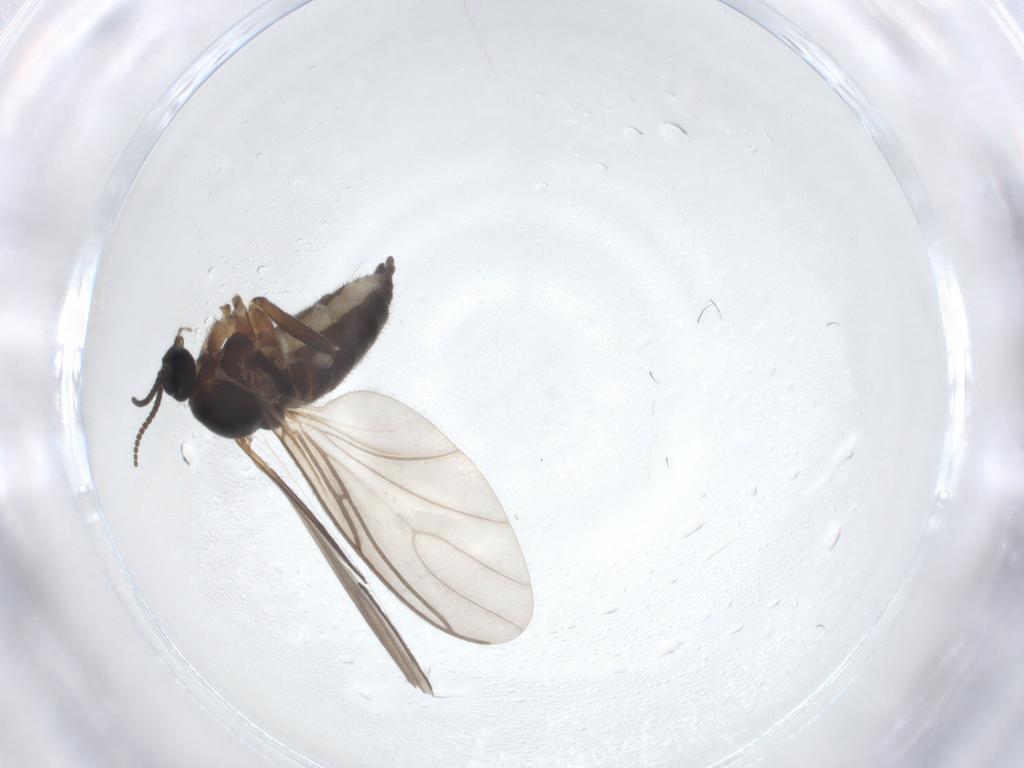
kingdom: Animalia
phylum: Arthropoda
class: Insecta
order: Diptera
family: Sciaridae
